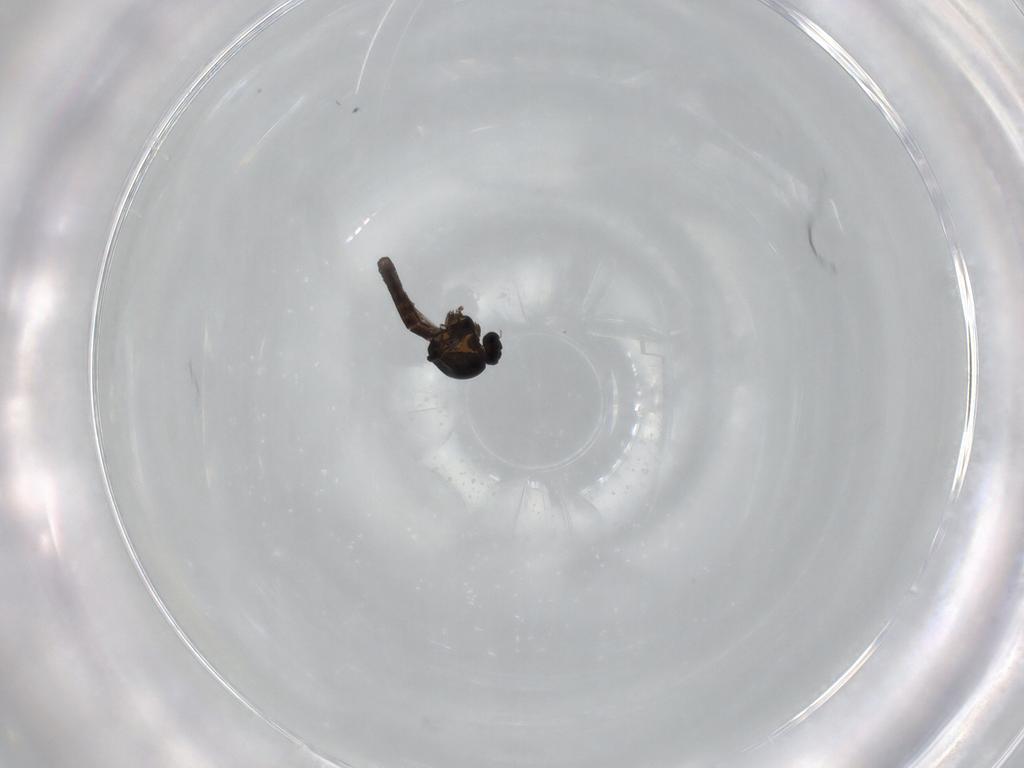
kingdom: Animalia
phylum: Arthropoda
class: Insecta
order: Diptera
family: Ceratopogonidae
